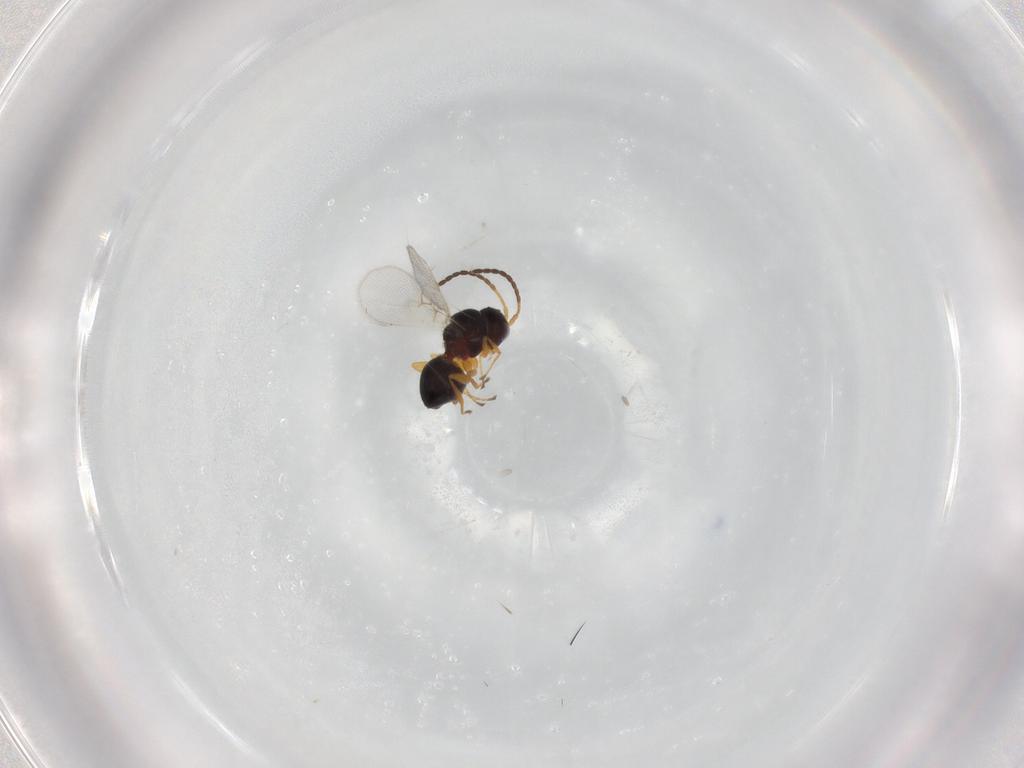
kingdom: Animalia
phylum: Arthropoda
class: Insecta
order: Hymenoptera
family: Figitidae
